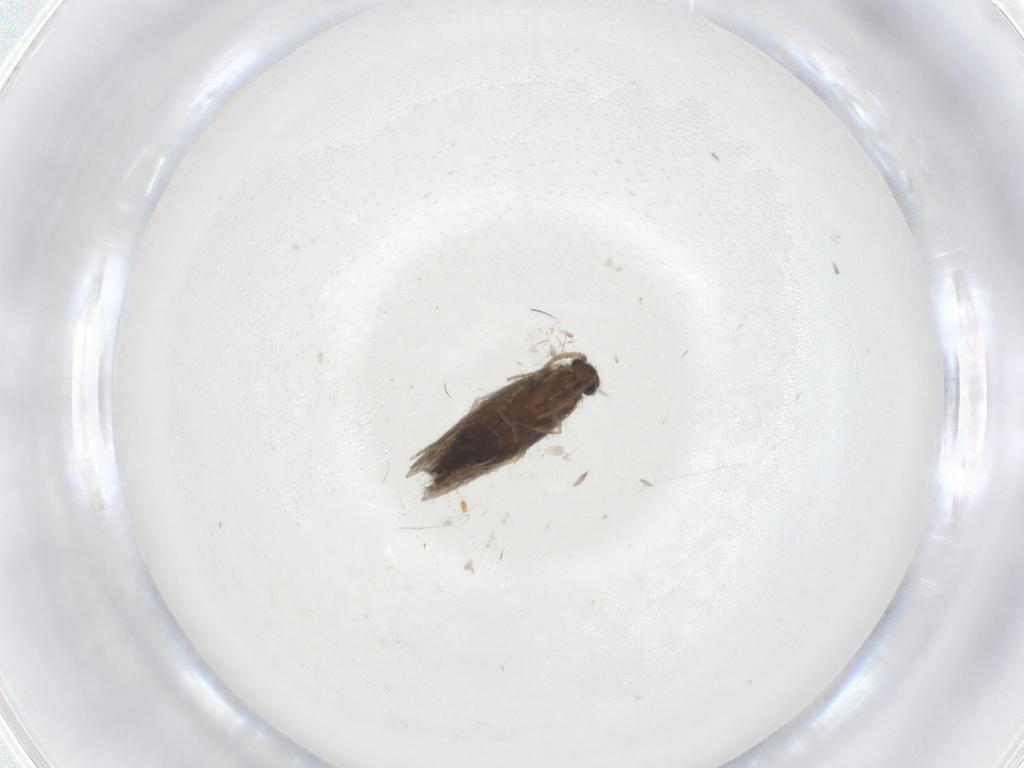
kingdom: Animalia
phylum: Arthropoda
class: Insecta
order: Trichoptera
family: Hydroptilidae
